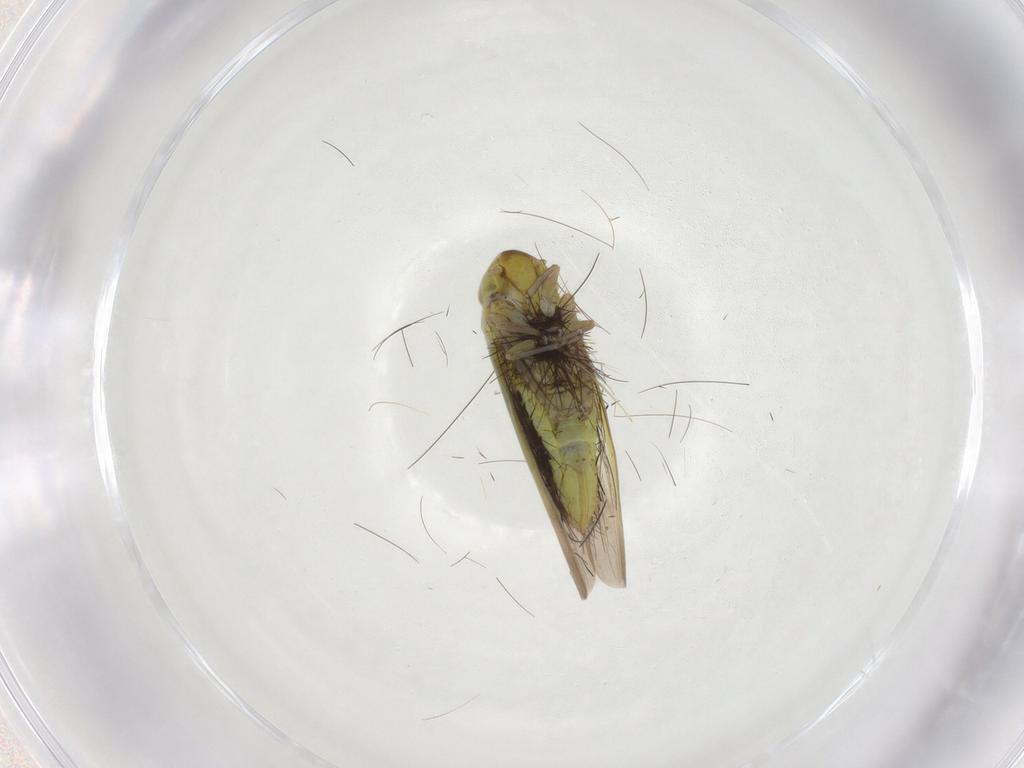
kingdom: Animalia
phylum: Arthropoda
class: Insecta
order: Hemiptera
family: Cicadellidae
